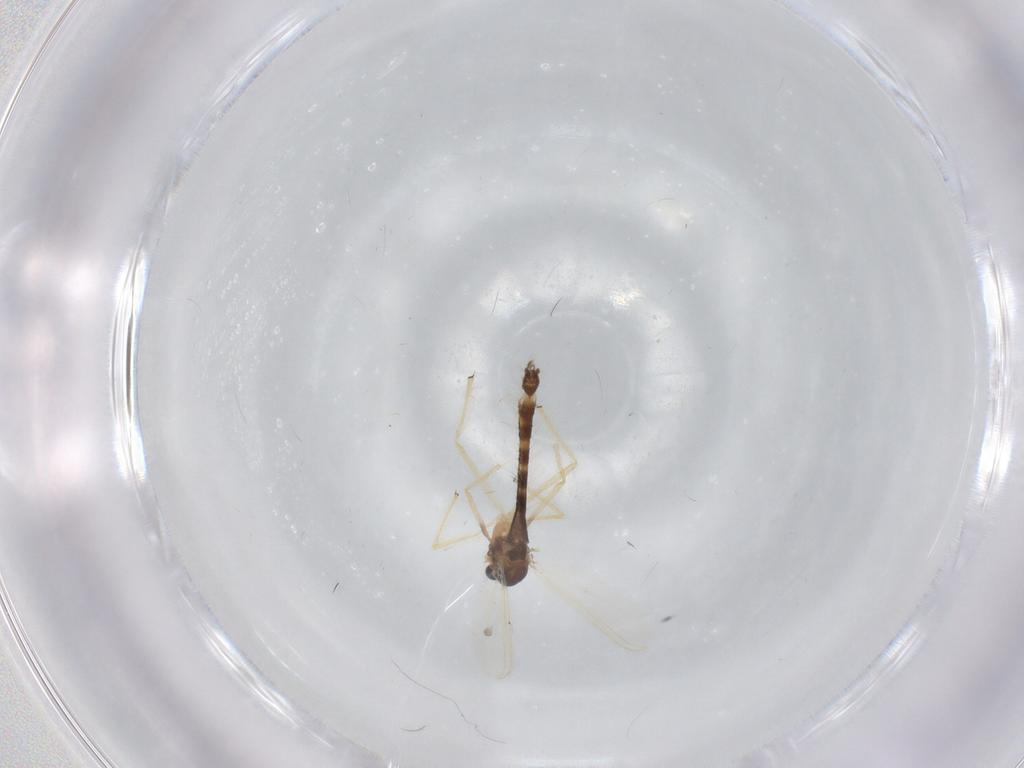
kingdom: Animalia
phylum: Arthropoda
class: Insecta
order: Diptera
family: Chironomidae
